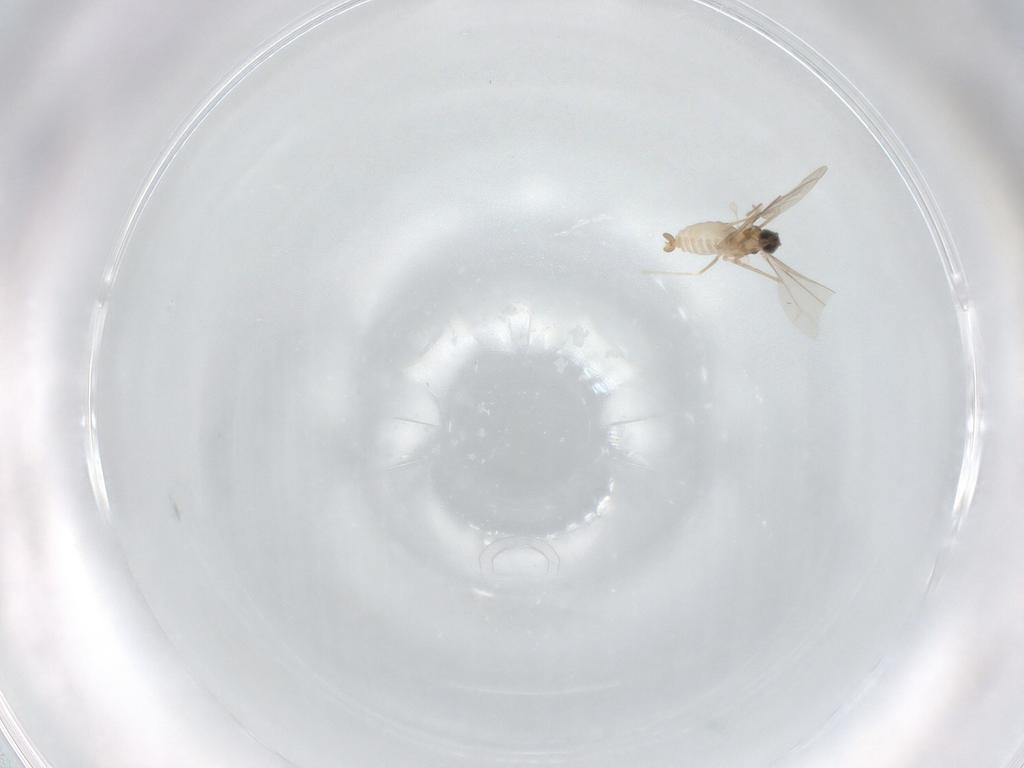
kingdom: Animalia
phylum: Arthropoda
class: Insecta
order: Diptera
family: Cecidomyiidae
